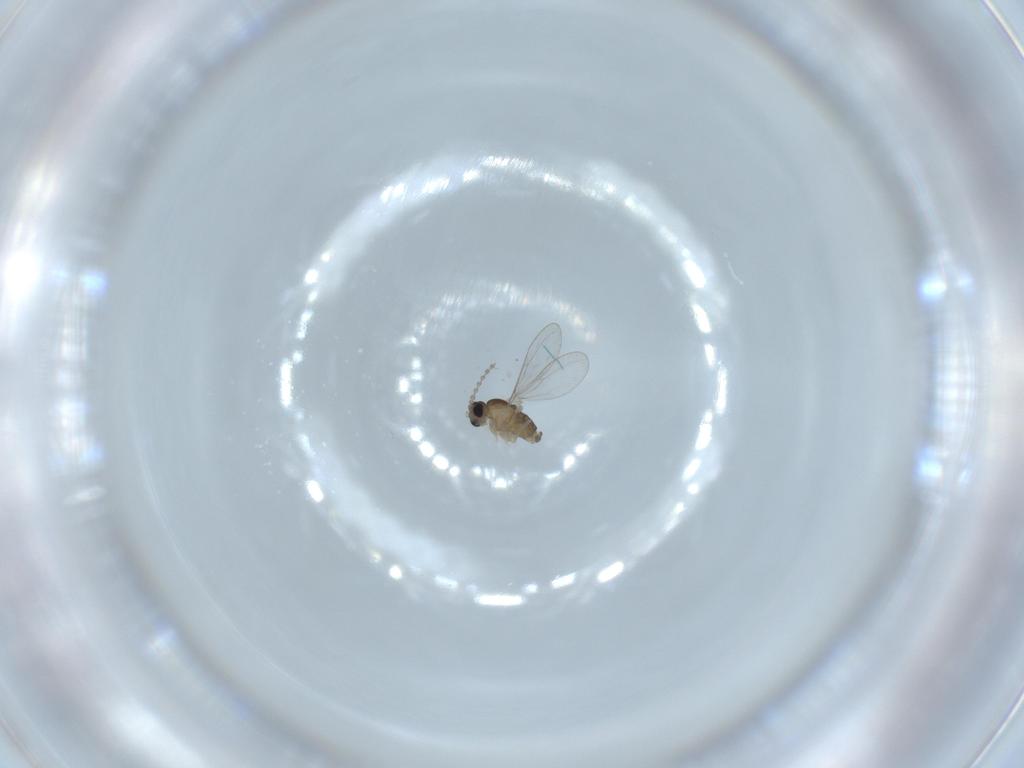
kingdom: Animalia
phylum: Arthropoda
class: Insecta
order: Diptera
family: Cecidomyiidae
